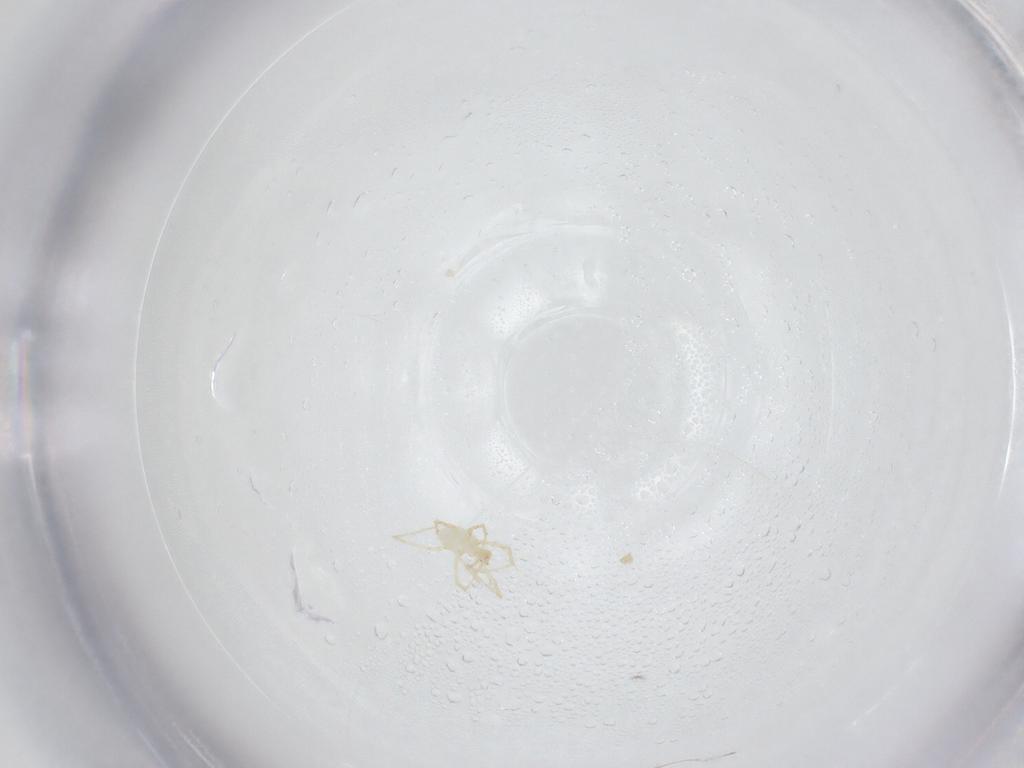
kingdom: Animalia
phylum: Arthropoda
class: Arachnida
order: Trombidiformes
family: Erythraeidae
